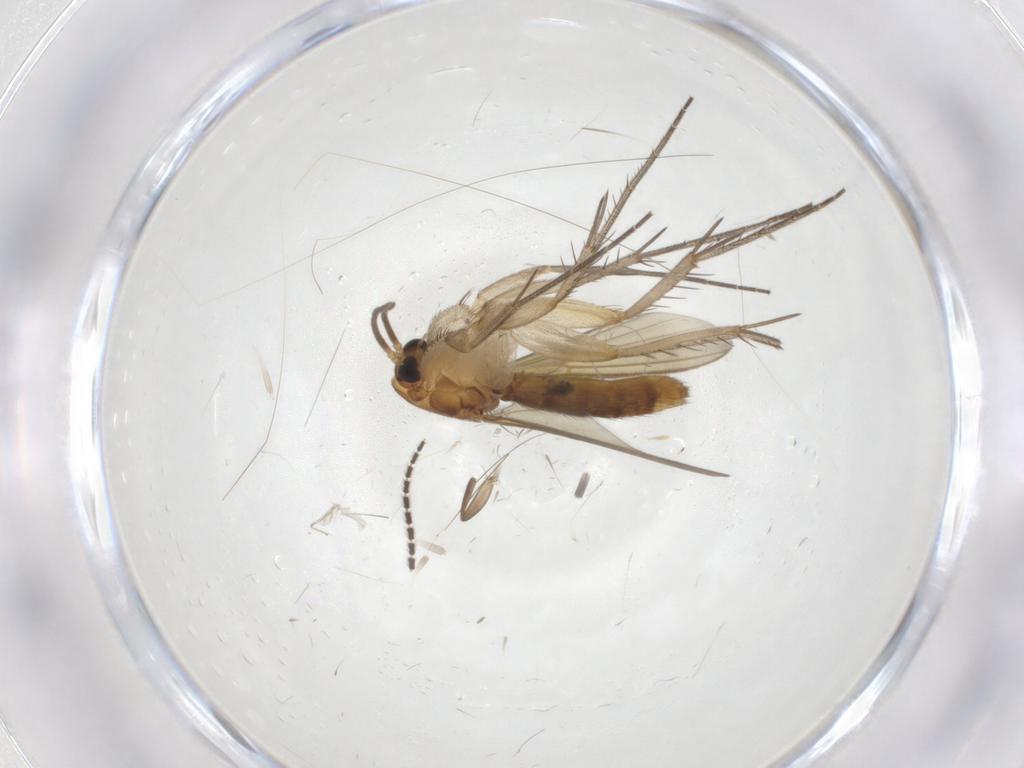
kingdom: Animalia
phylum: Arthropoda
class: Insecta
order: Diptera
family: Mycetophilidae
